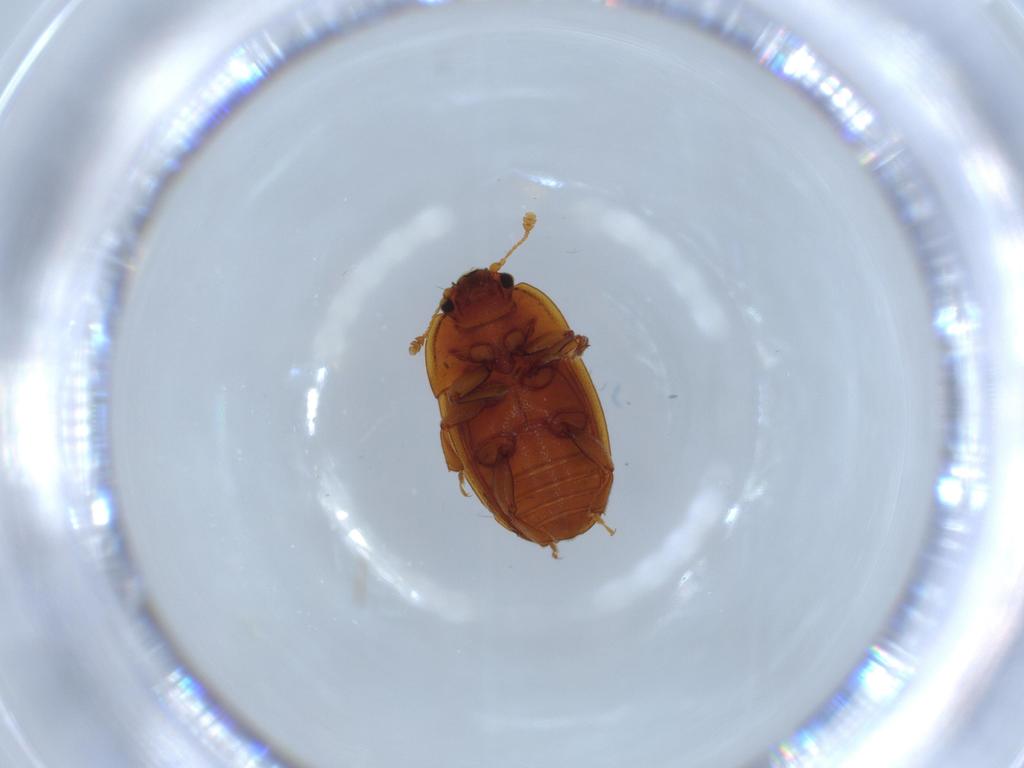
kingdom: Animalia
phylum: Arthropoda
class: Insecta
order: Coleoptera
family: Nitidulidae
